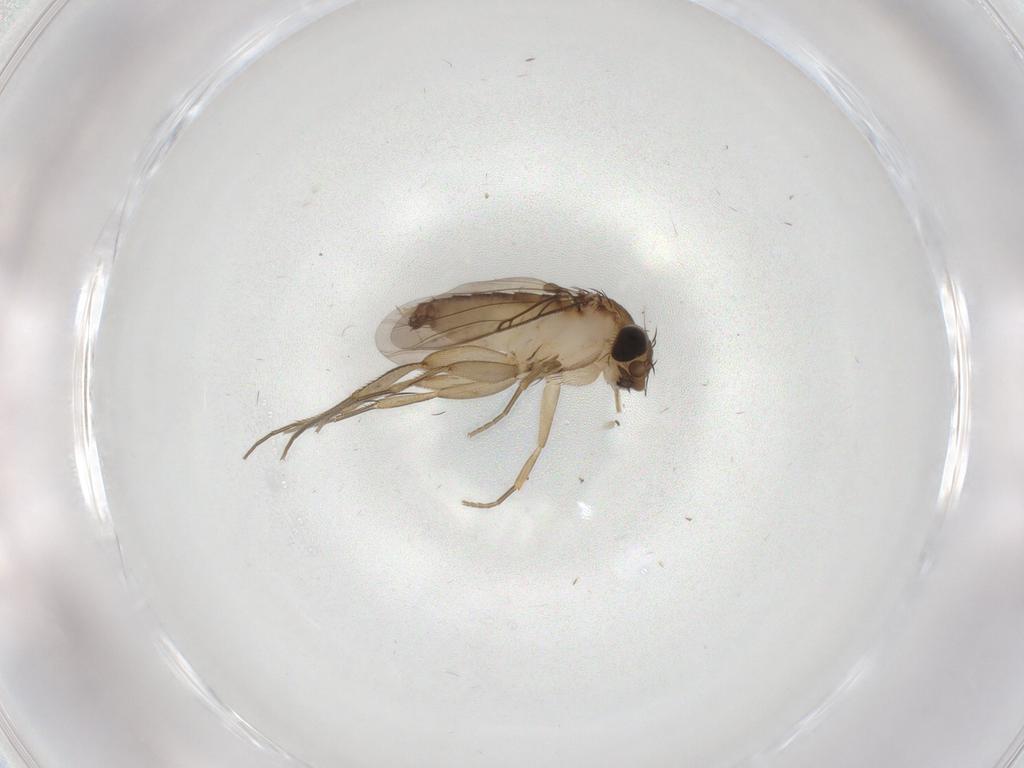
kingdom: Animalia
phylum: Arthropoda
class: Insecta
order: Diptera
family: Phoridae
